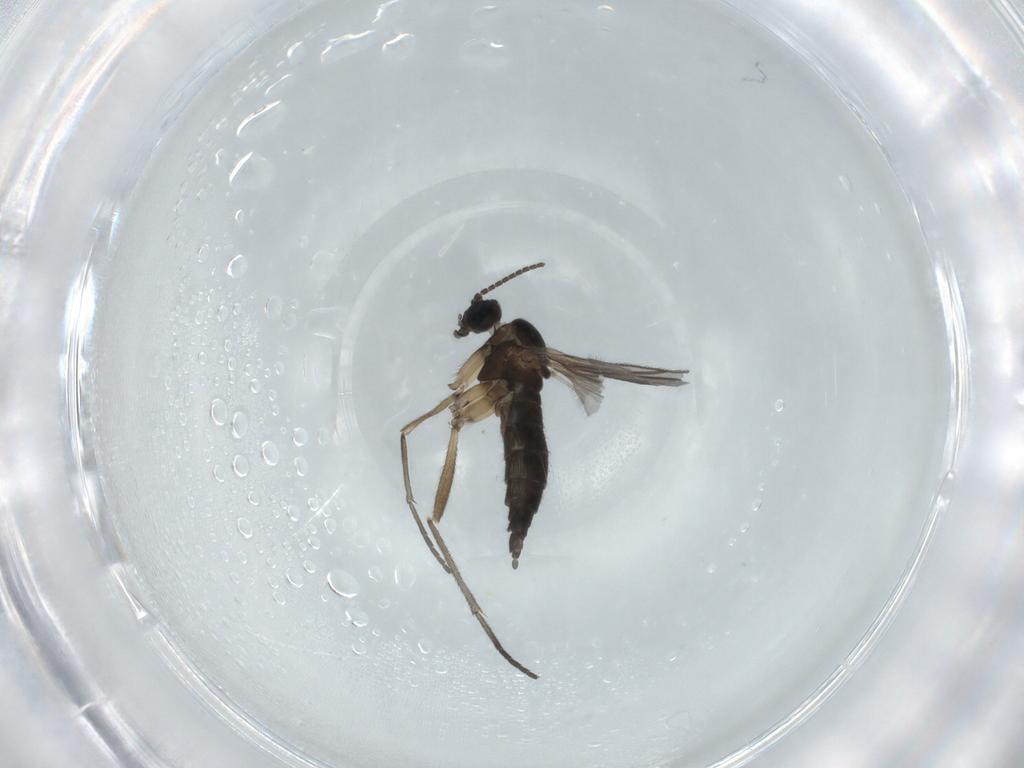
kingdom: Animalia
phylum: Arthropoda
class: Insecta
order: Diptera
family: Sciaridae
